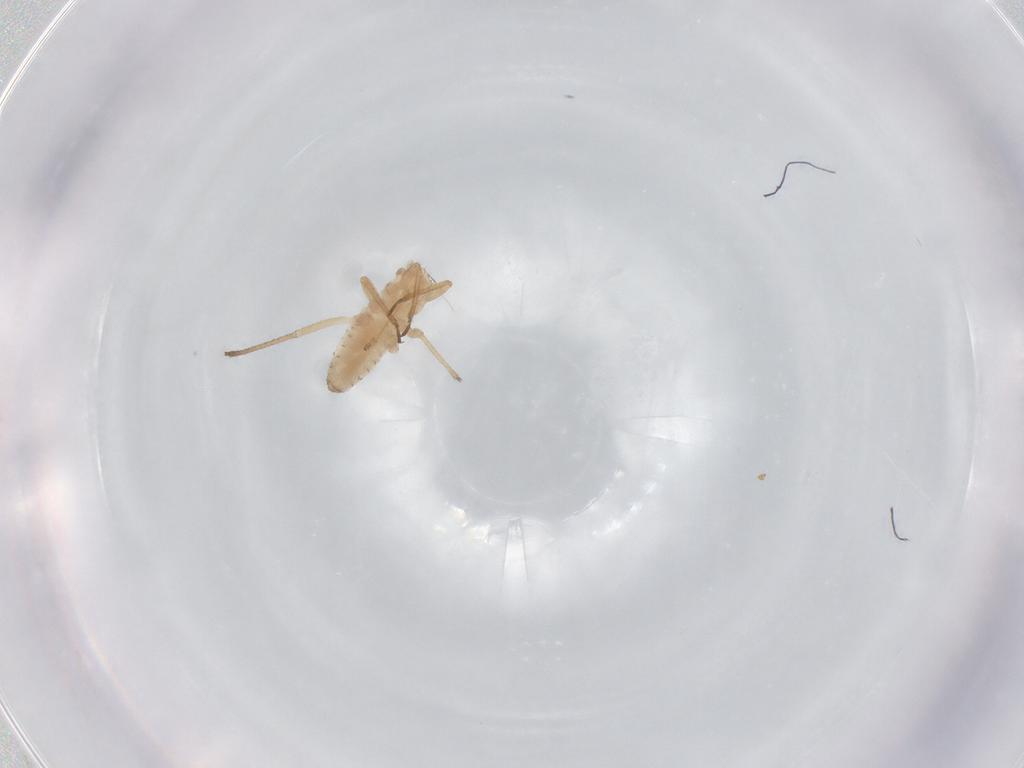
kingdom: Animalia
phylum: Arthropoda
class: Insecta
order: Hemiptera
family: Aphididae
